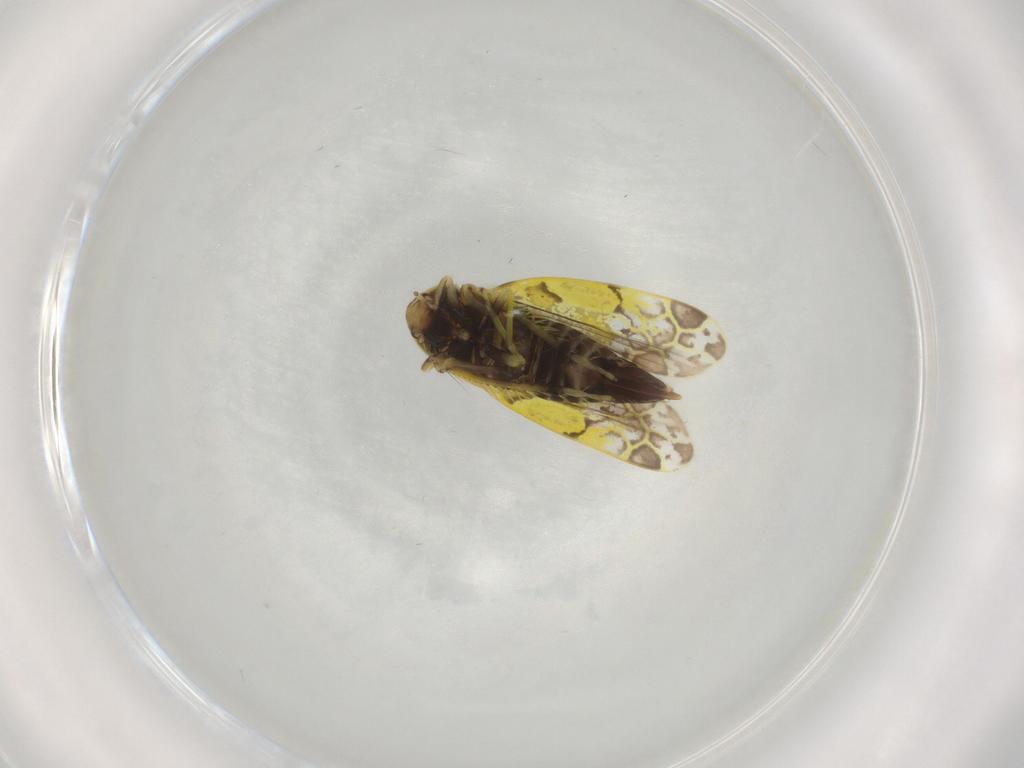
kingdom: Animalia
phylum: Arthropoda
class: Insecta
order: Hemiptera
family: Cicadellidae
